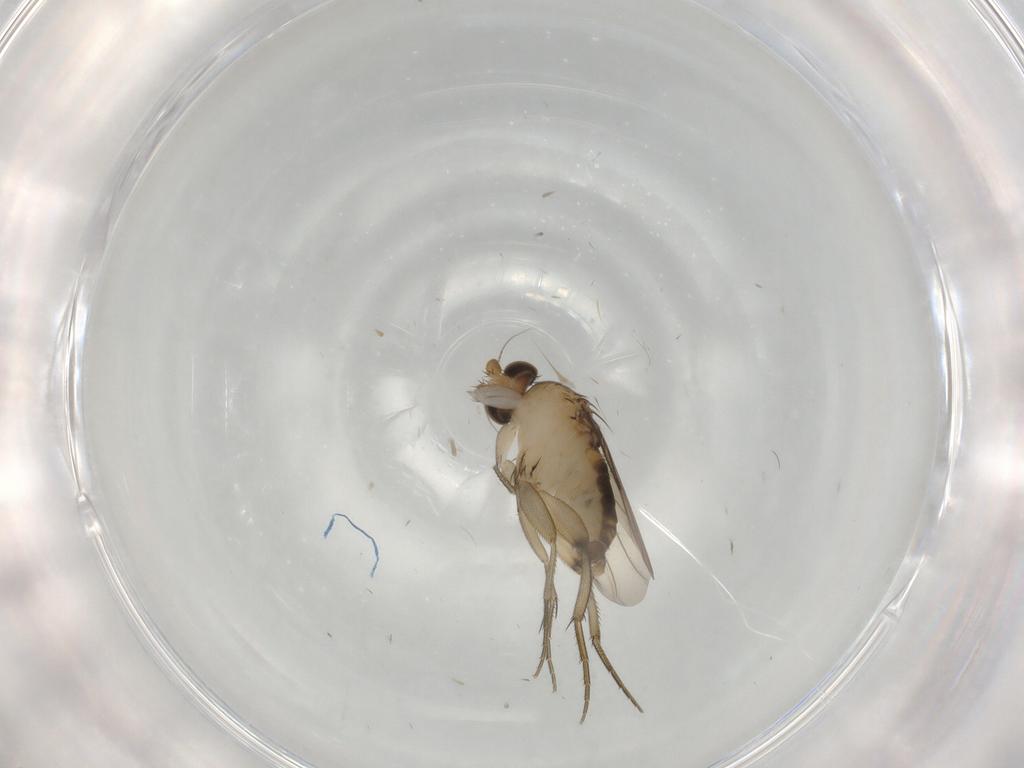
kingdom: Animalia
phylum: Arthropoda
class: Insecta
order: Diptera
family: Phoridae
